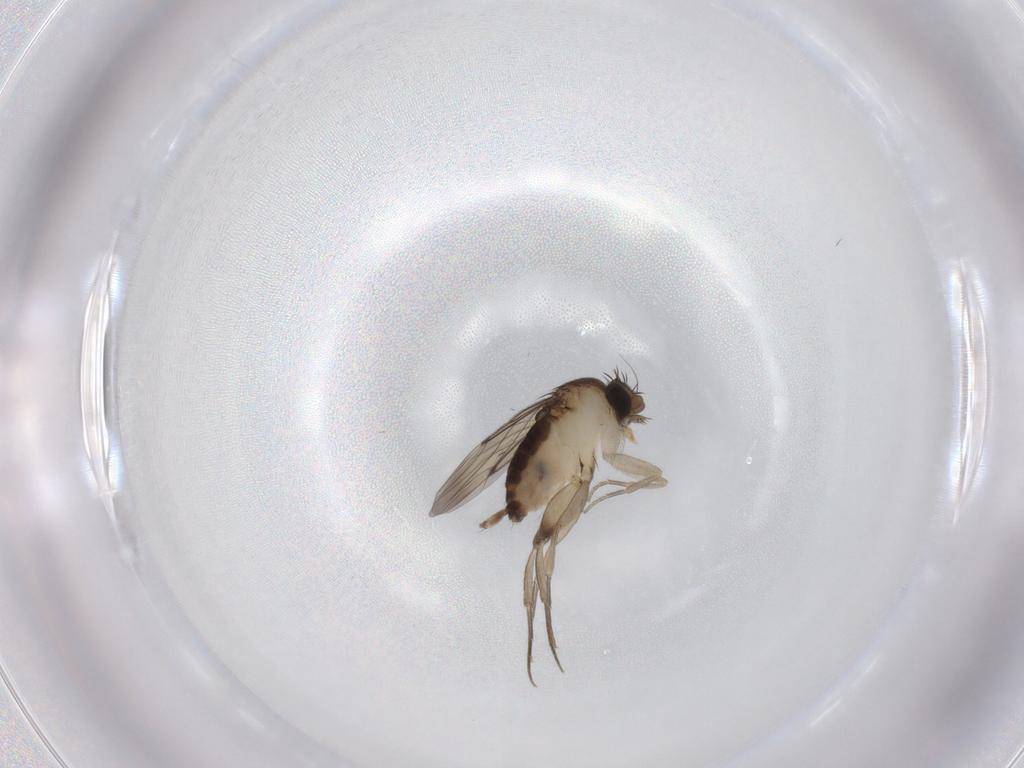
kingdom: Animalia
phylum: Arthropoda
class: Insecta
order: Diptera
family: Phoridae
